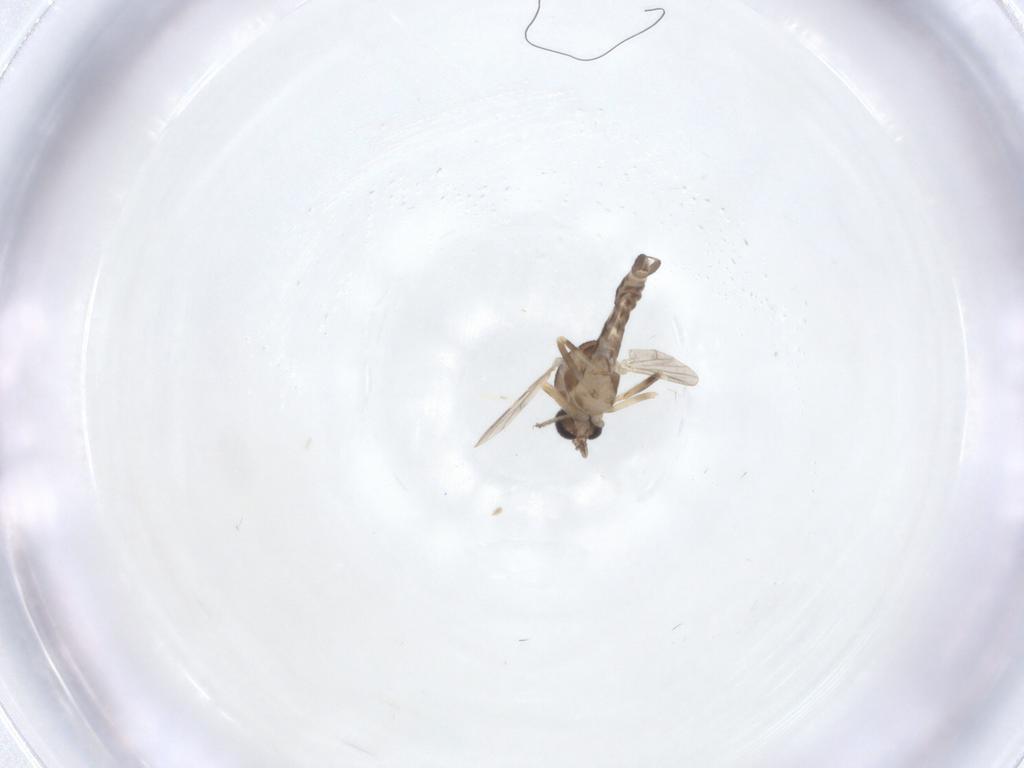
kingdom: Animalia
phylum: Arthropoda
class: Insecta
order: Diptera
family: Ceratopogonidae
